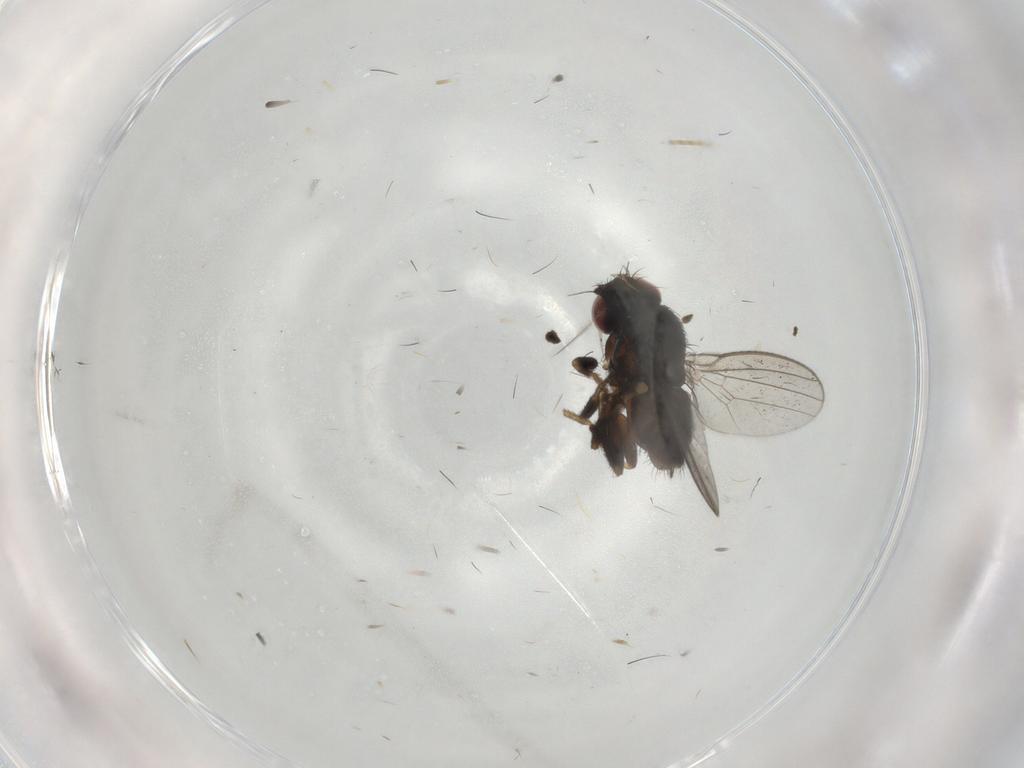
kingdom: Animalia
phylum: Arthropoda
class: Insecta
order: Diptera
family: Milichiidae
